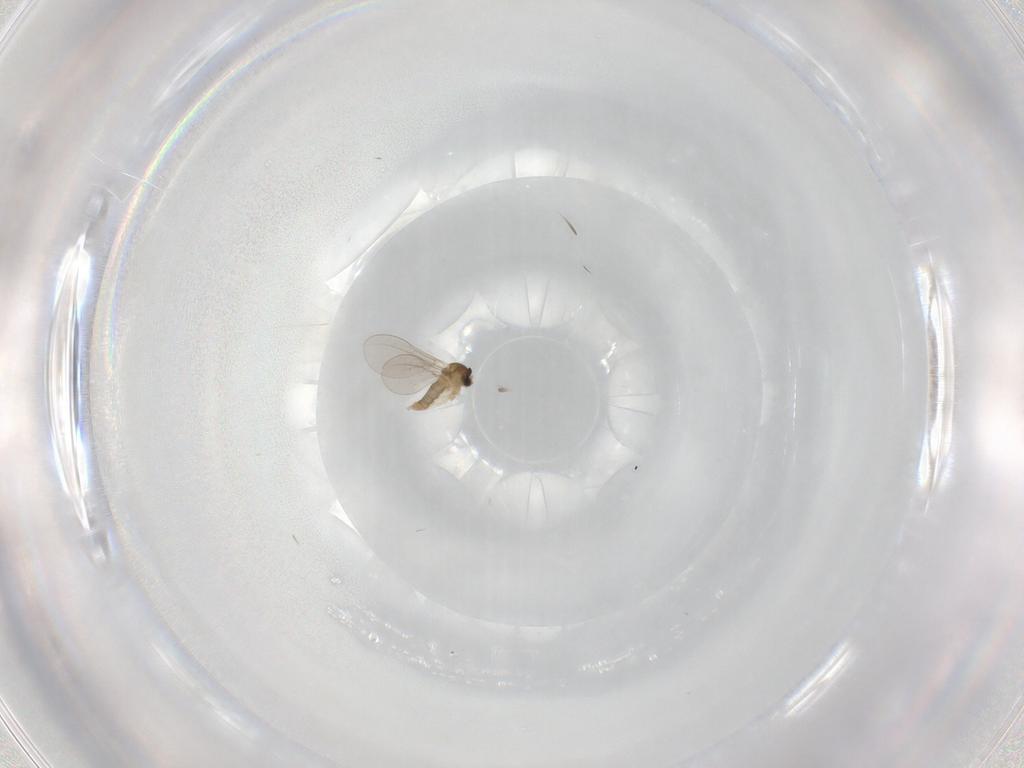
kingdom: Animalia
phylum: Arthropoda
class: Insecta
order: Diptera
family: Cecidomyiidae
